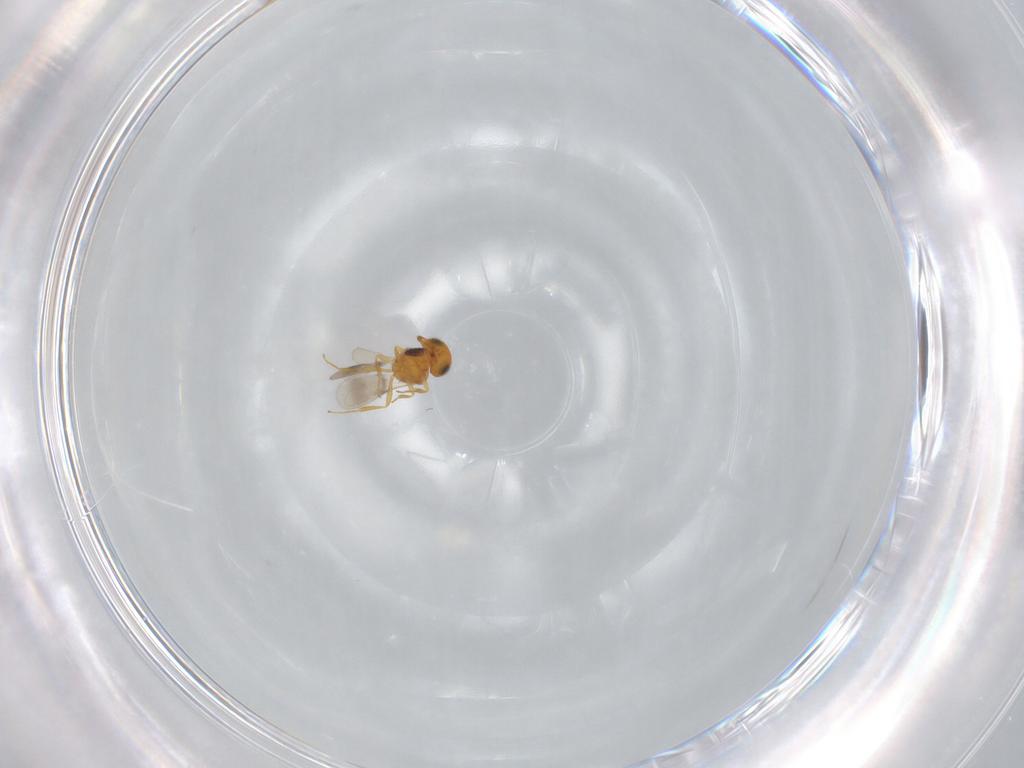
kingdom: Animalia
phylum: Arthropoda
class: Insecta
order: Hymenoptera
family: Scelionidae
